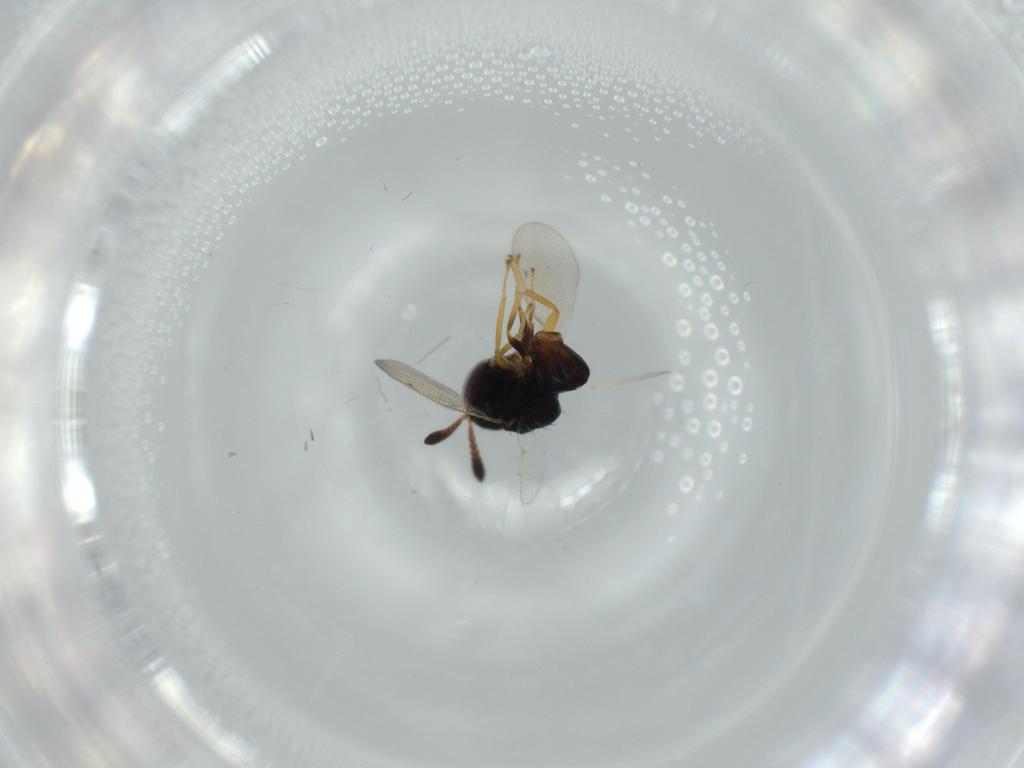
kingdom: Animalia
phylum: Arthropoda
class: Insecta
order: Hymenoptera
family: Pteromalidae
